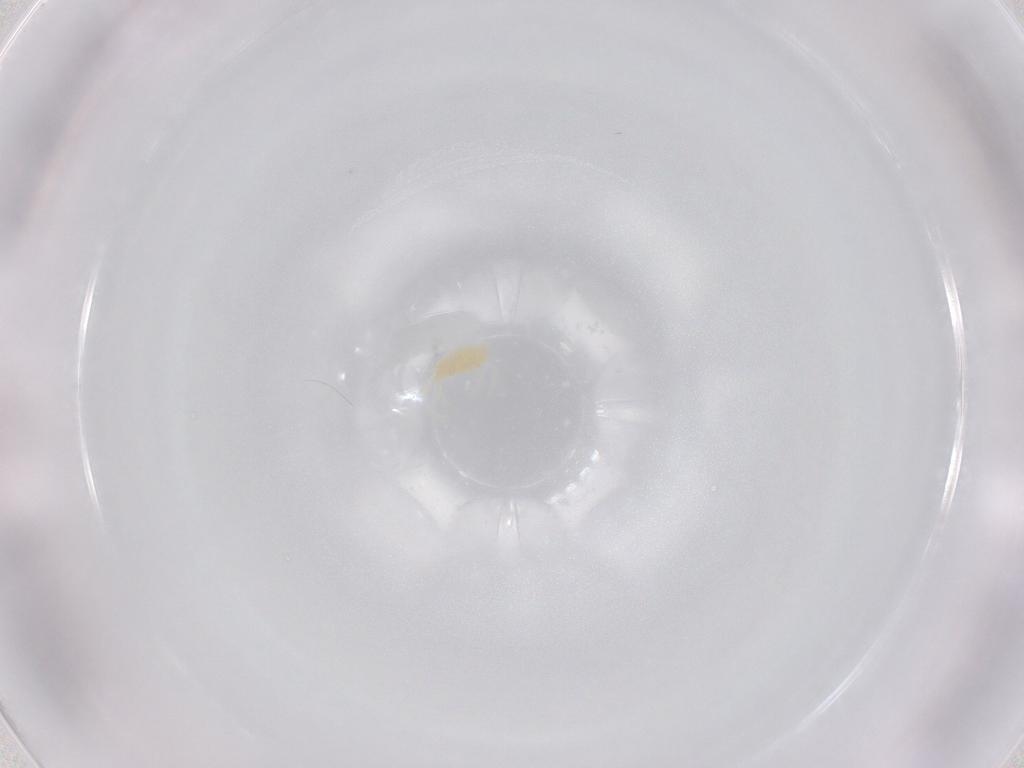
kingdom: Animalia
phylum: Arthropoda
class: Arachnida
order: Trombidiformes
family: Tetranychidae
